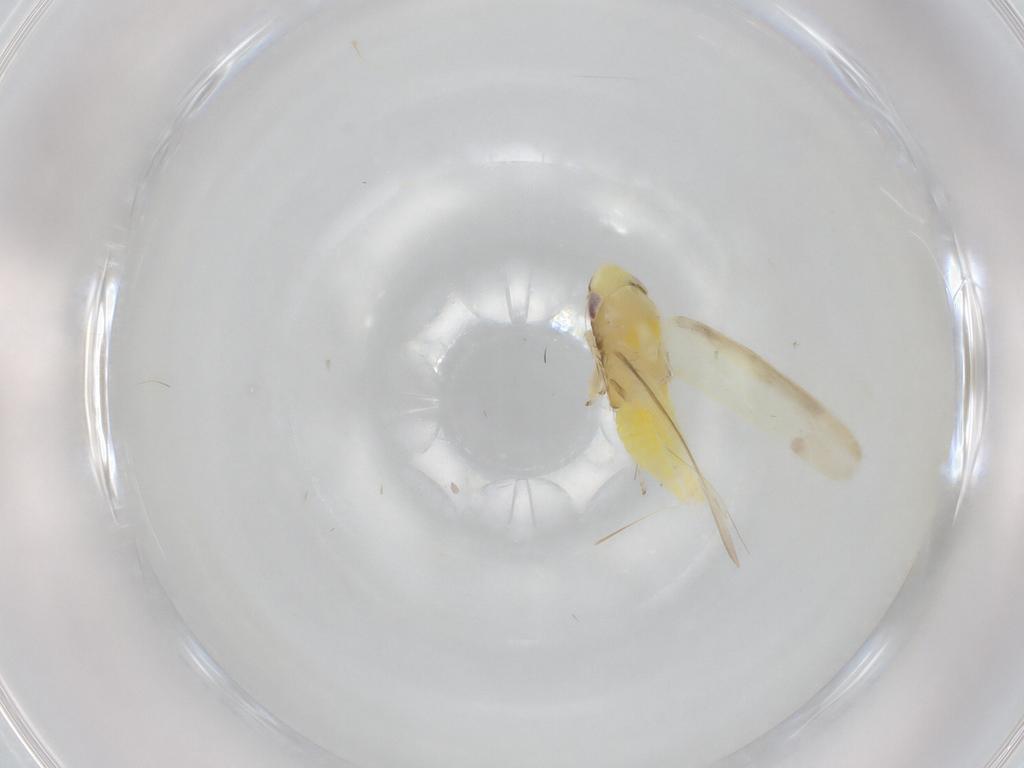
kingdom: Animalia
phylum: Arthropoda
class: Insecta
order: Hemiptera
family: Cicadellidae
